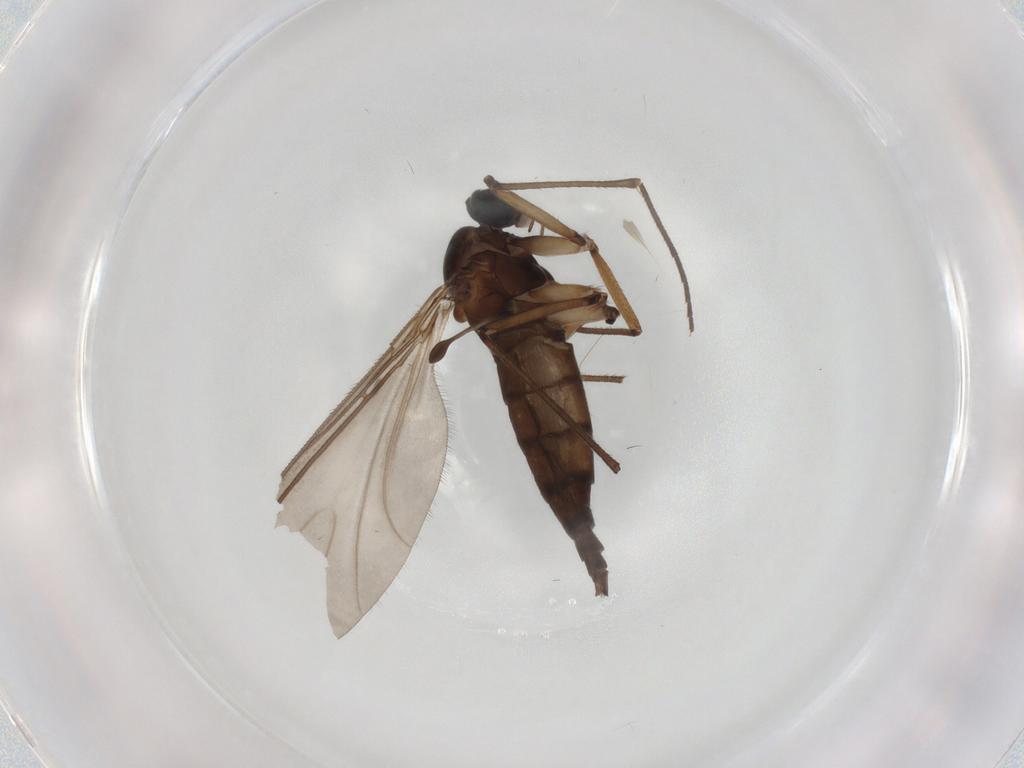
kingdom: Animalia
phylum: Arthropoda
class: Insecta
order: Diptera
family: Sciaridae
